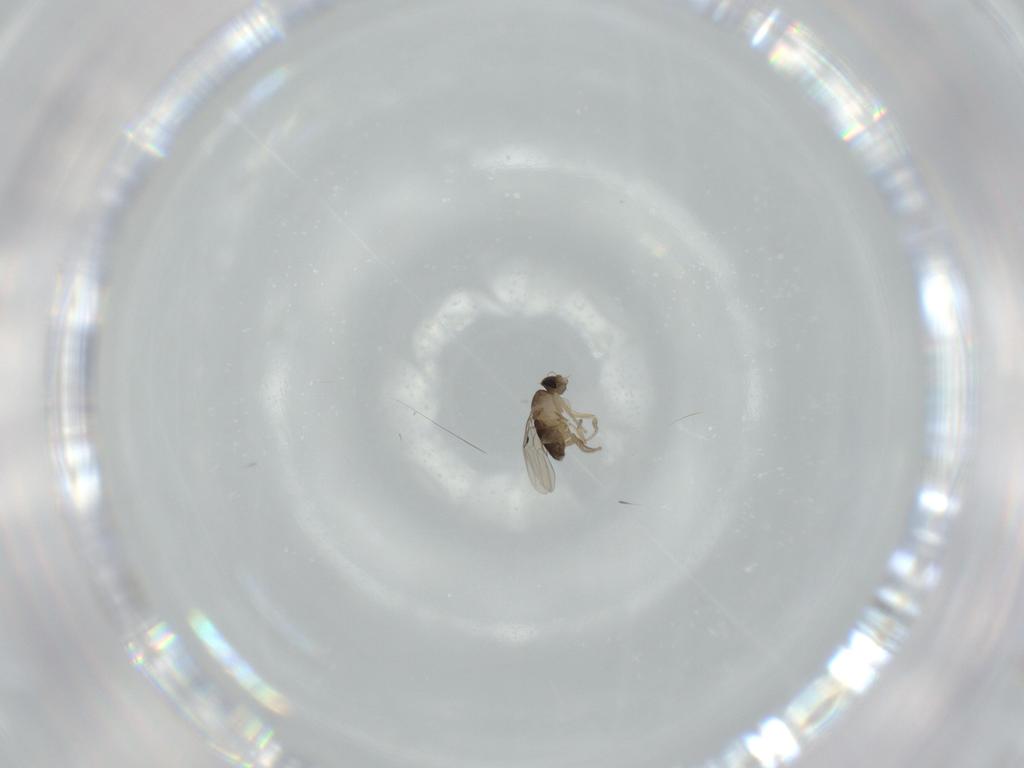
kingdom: Animalia
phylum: Arthropoda
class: Insecta
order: Diptera
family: Phoridae
